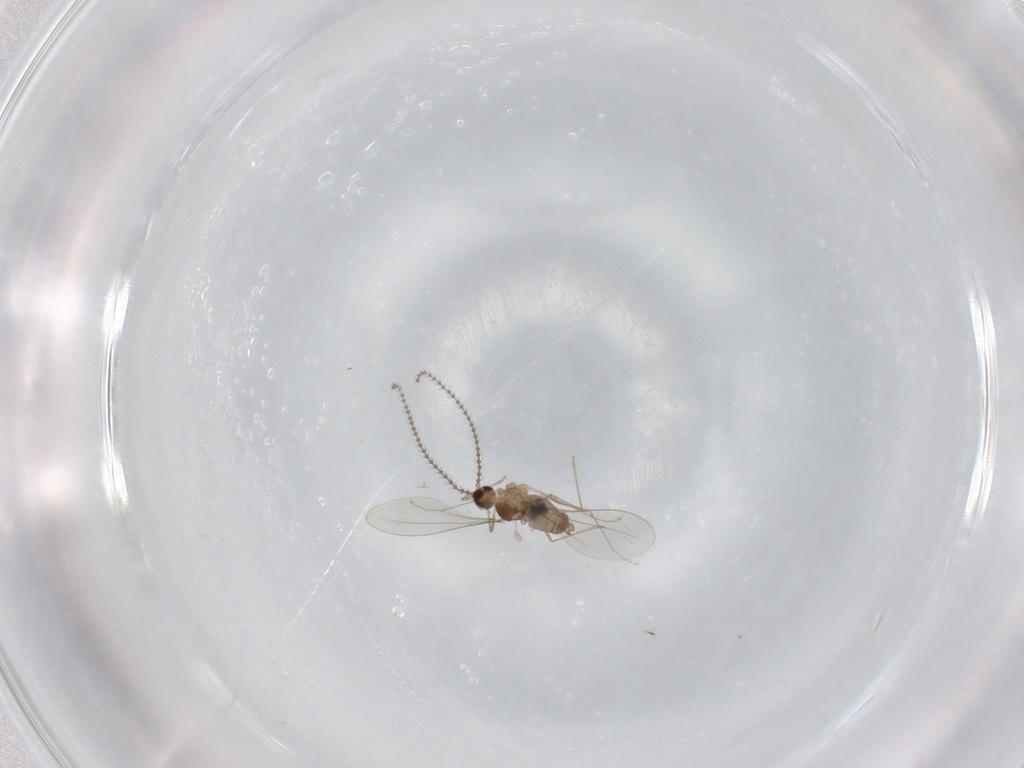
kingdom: Animalia
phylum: Arthropoda
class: Insecta
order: Diptera
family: Cecidomyiidae
